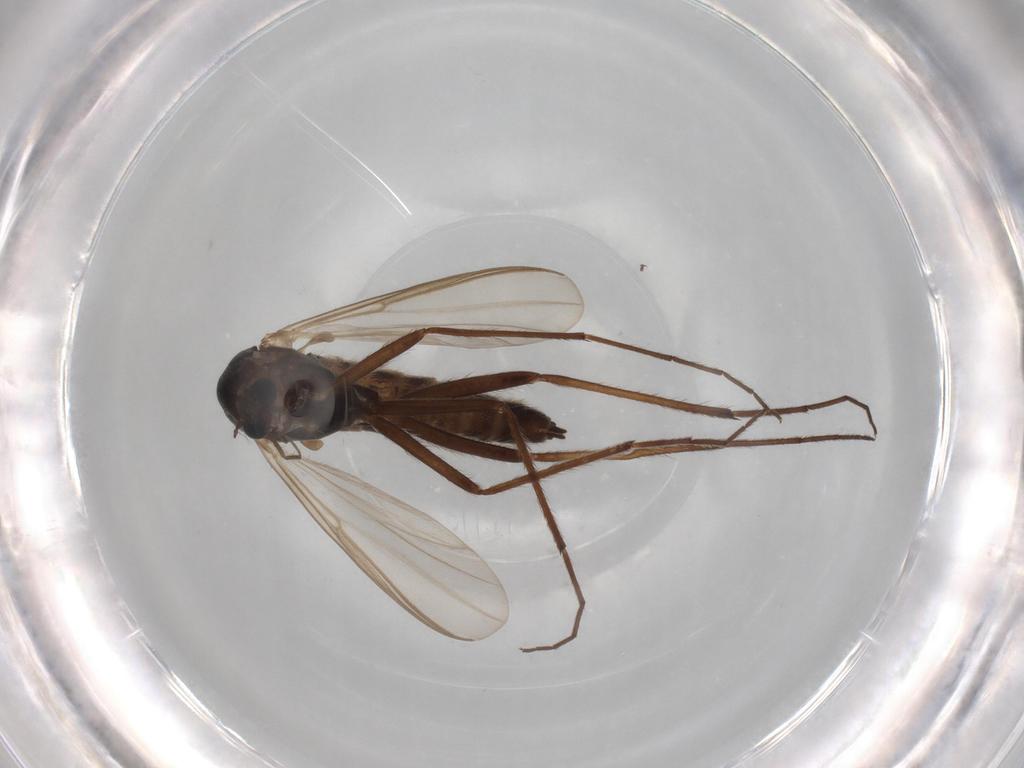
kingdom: Animalia
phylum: Arthropoda
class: Insecta
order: Diptera
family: Chironomidae
